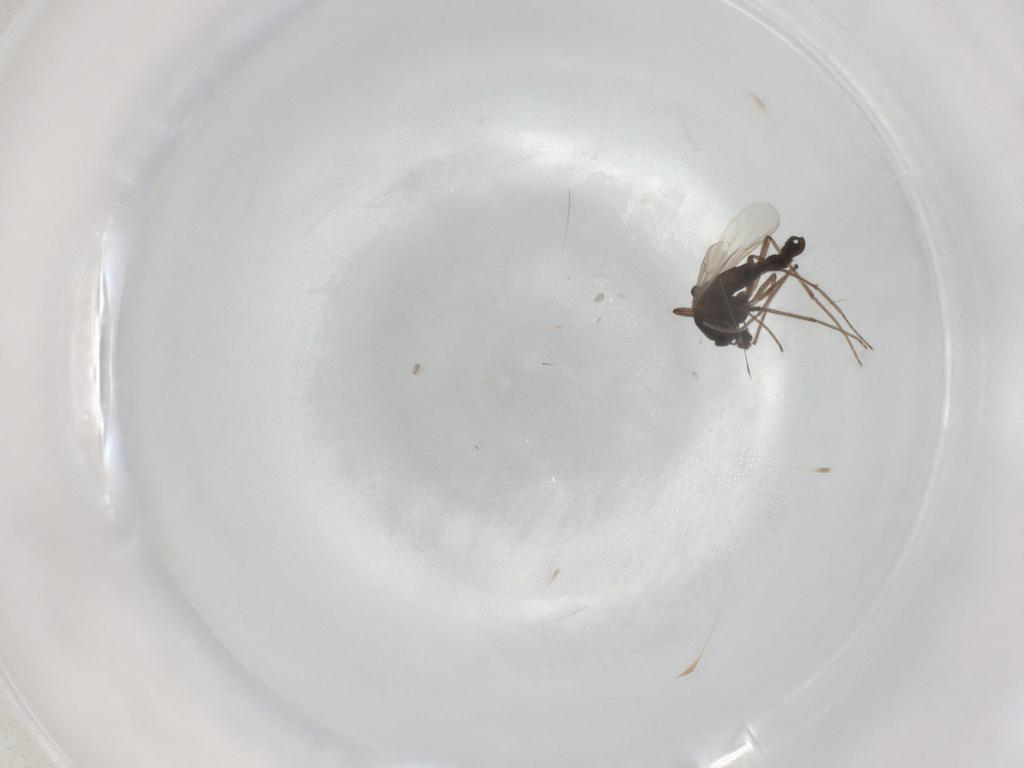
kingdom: Animalia
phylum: Arthropoda
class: Insecta
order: Diptera
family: Chironomidae
